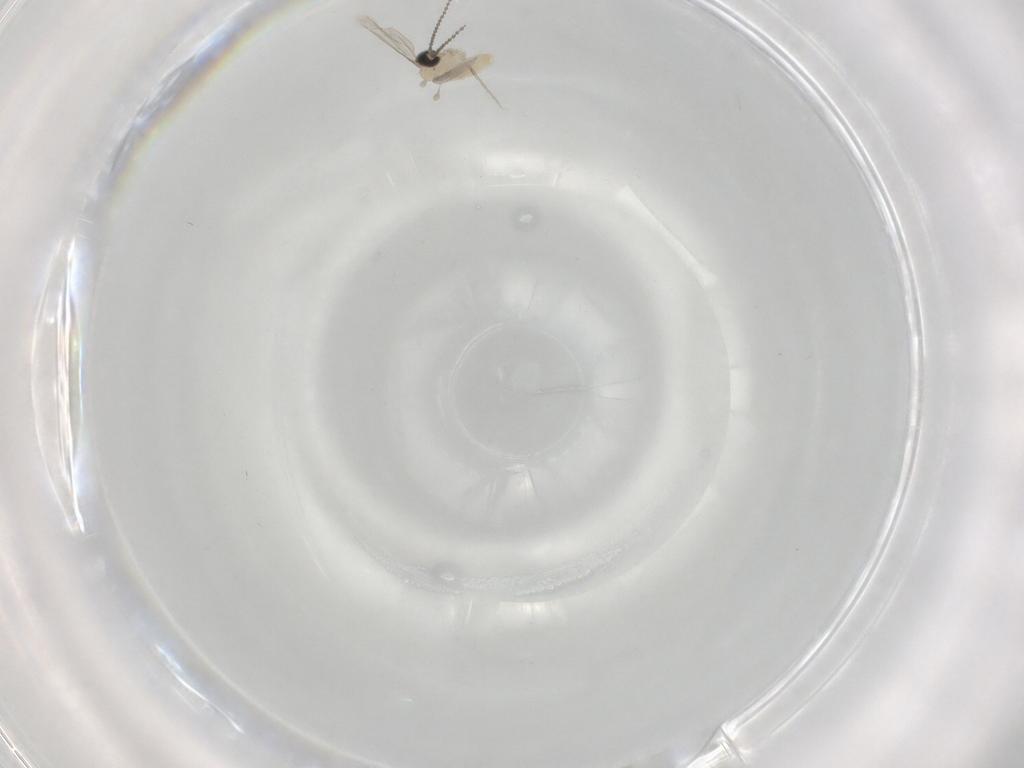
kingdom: Animalia
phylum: Arthropoda
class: Insecta
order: Diptera
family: Cecidomyiidae
